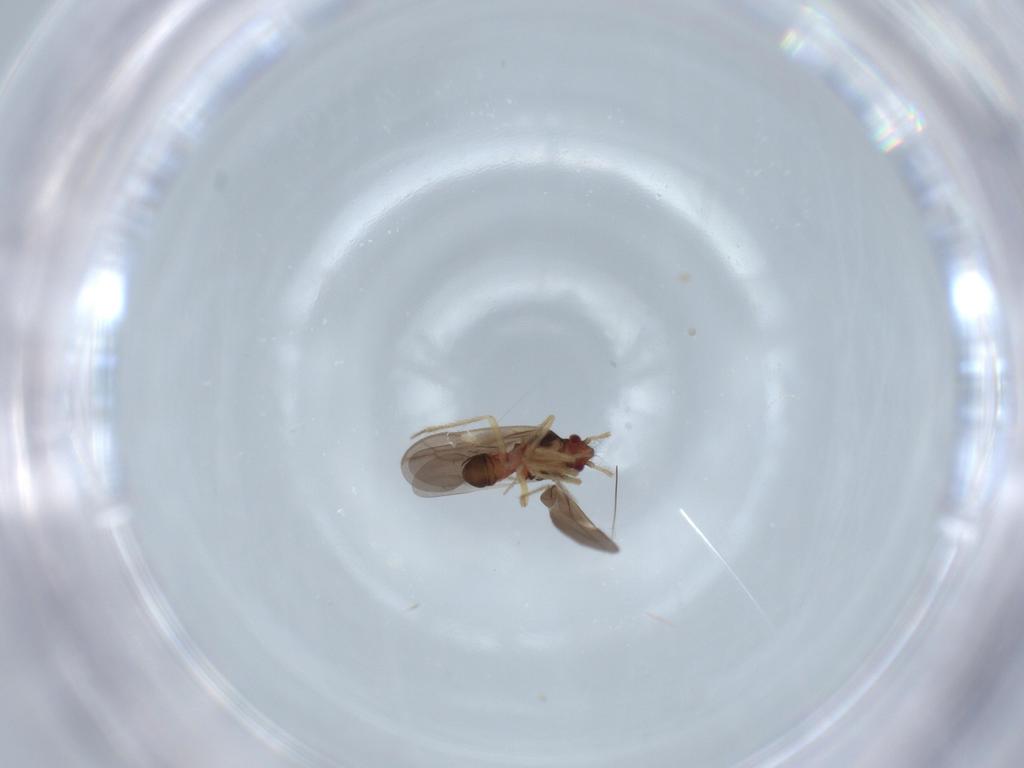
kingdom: Animalia
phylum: Arthropoda
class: Insecta
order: Hemiptera
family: Ceratocombidae
